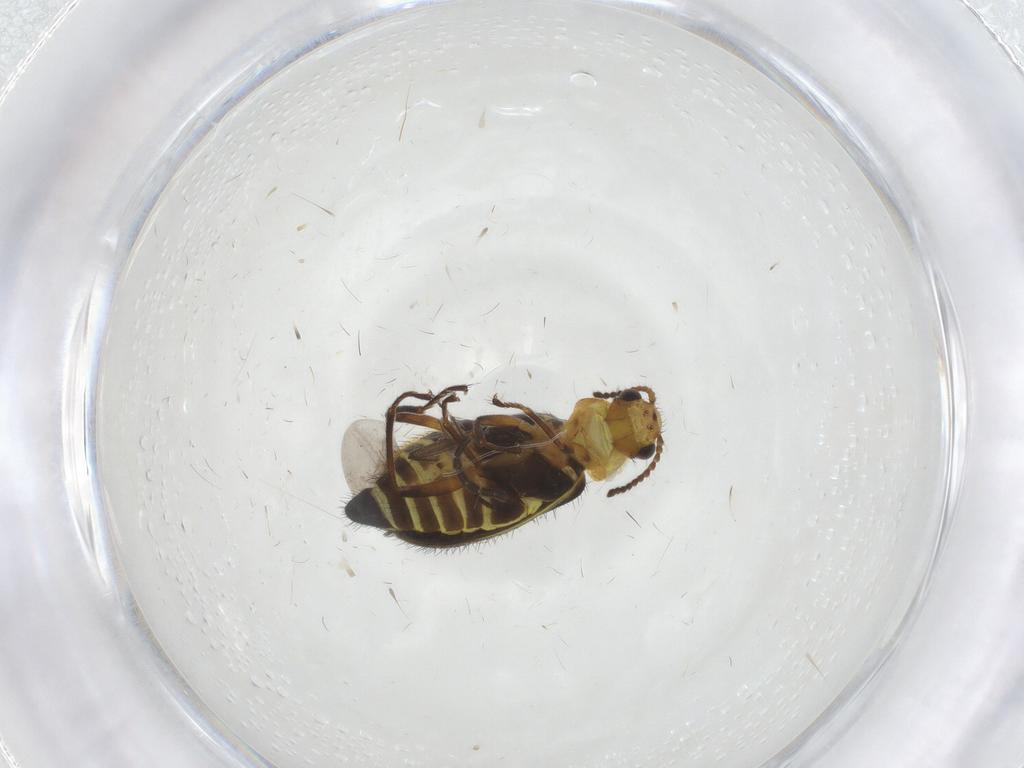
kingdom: Animalia
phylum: Arthropoda
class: Insecta
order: Coleoptera
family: Melyridae
